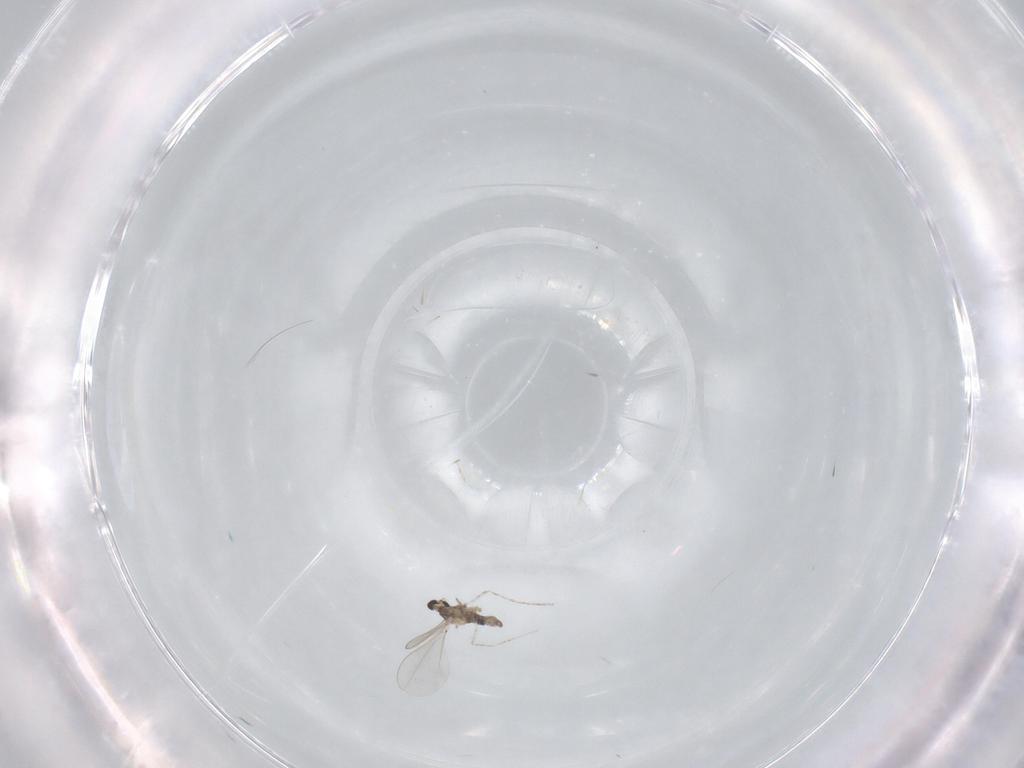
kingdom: Animalia
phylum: Arthropoda
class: Insecta
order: Diptera
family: Cecidomyiidae
